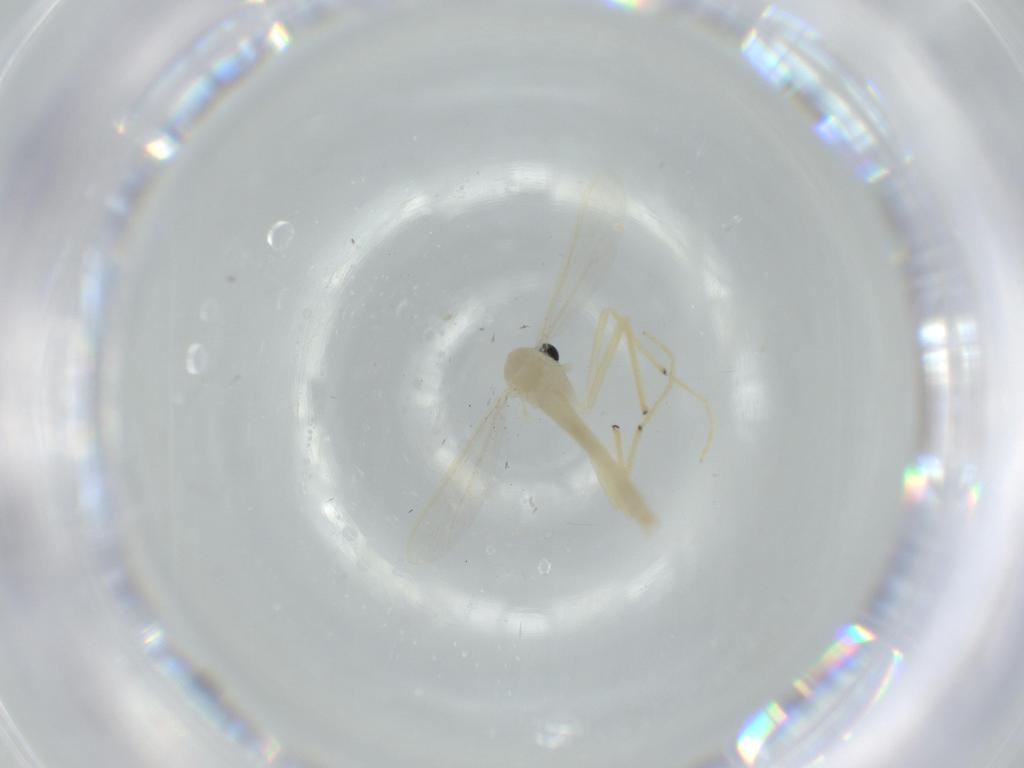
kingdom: Animalia
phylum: Arthropoda
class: Insecta
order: Diptera
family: Chironomidae
